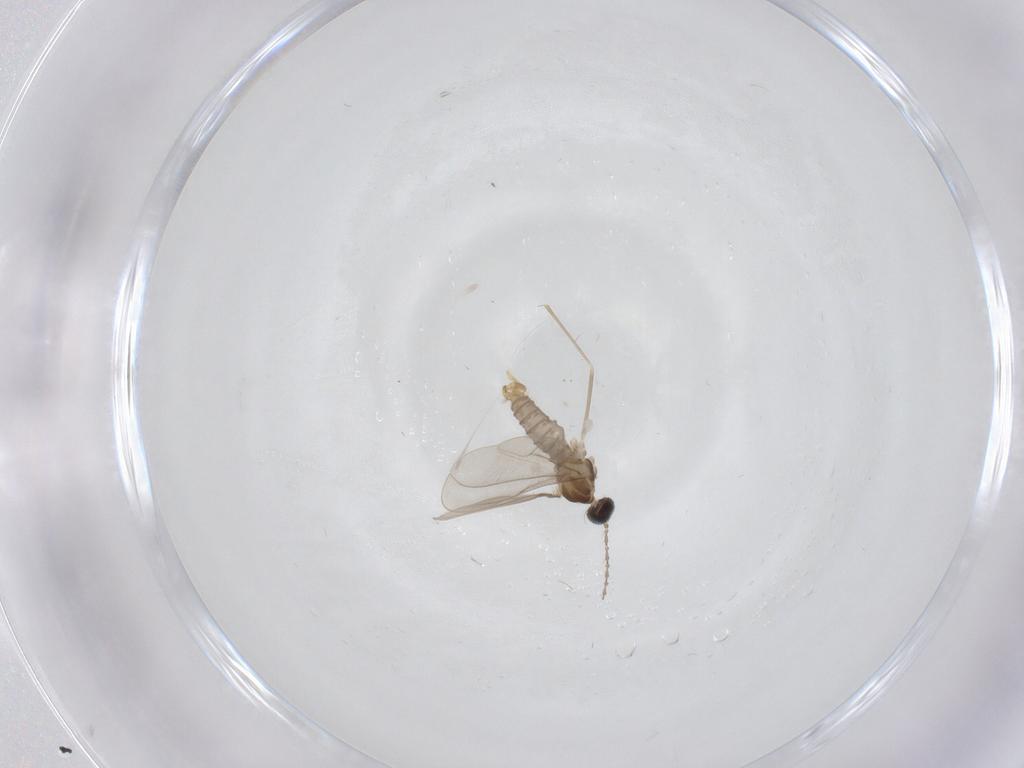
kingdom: Animalia
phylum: Arthropoda
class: Insecta
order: Diptera
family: Cecidomyiidae
